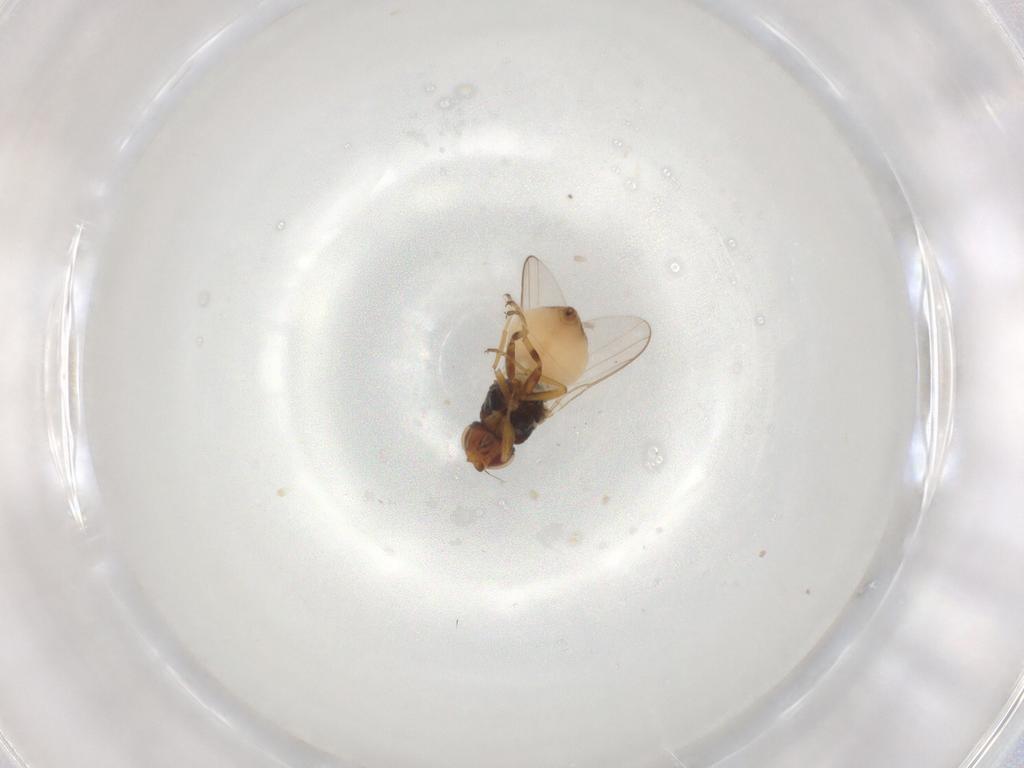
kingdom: Animalia
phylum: Arthropoda
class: Insecta
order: Diptera
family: Chloropidae
